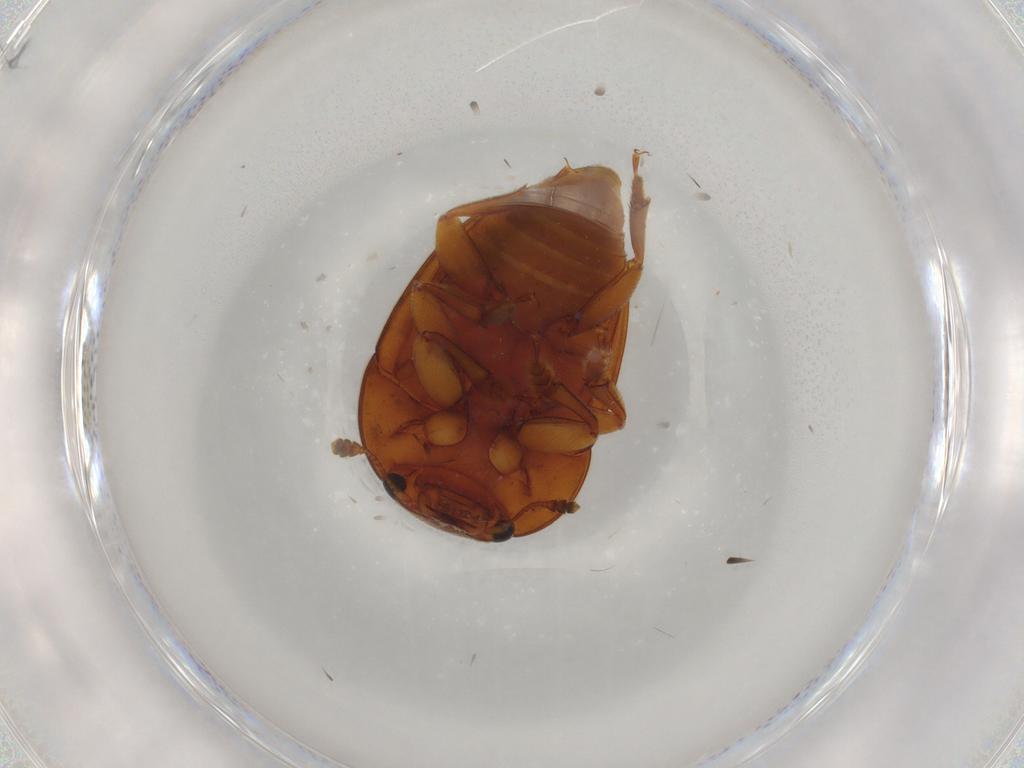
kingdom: Animalia
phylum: Arthropoda
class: Insecta
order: Coleoptera
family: Nitidulidae
